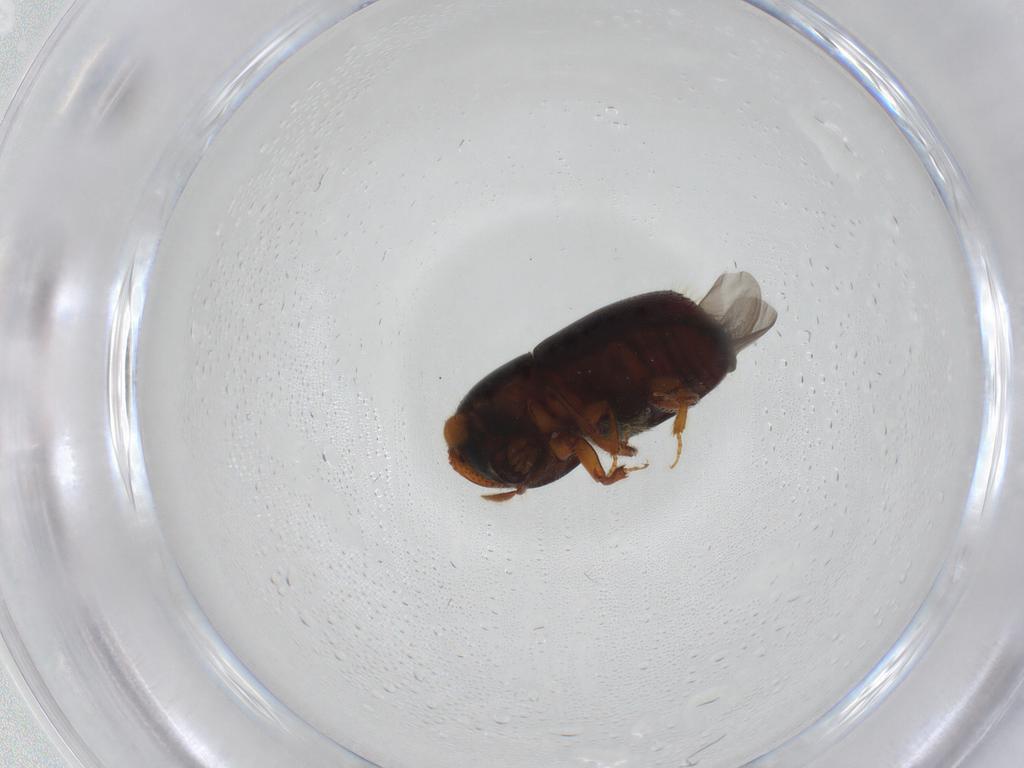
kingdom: Animalia
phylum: Arthropoda
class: Insecta
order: Coleoptera
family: Curculionidae
